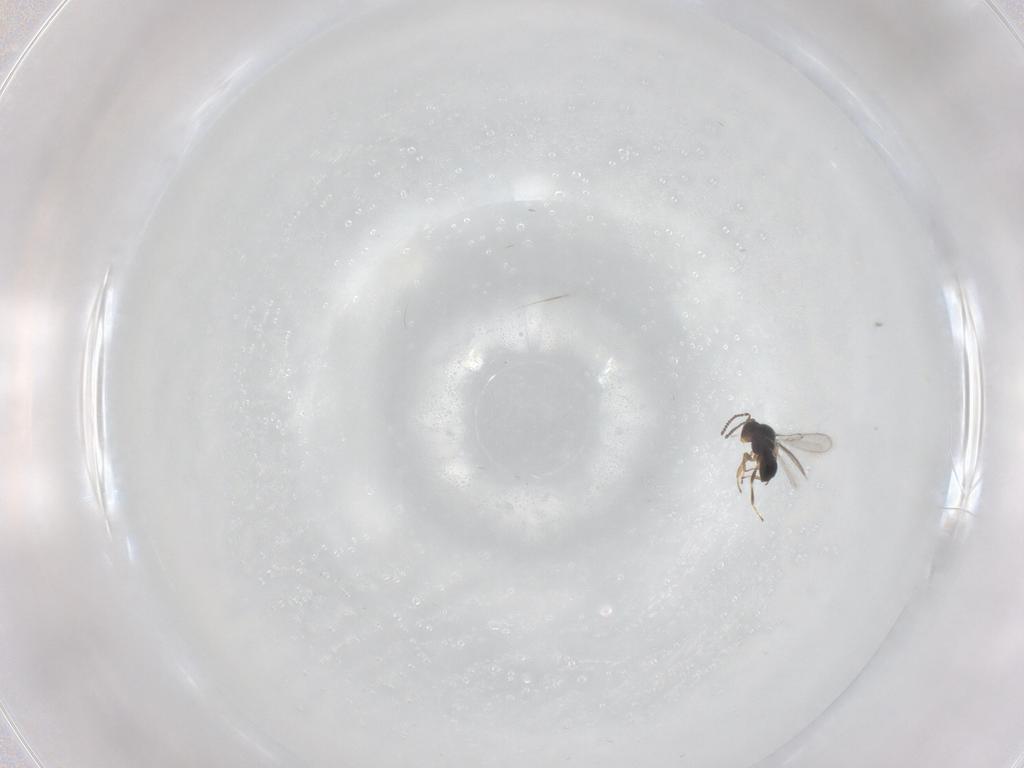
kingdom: Animalia
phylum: Arthropoda
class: Insecta
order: Hymenoptera
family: Scelionidae
